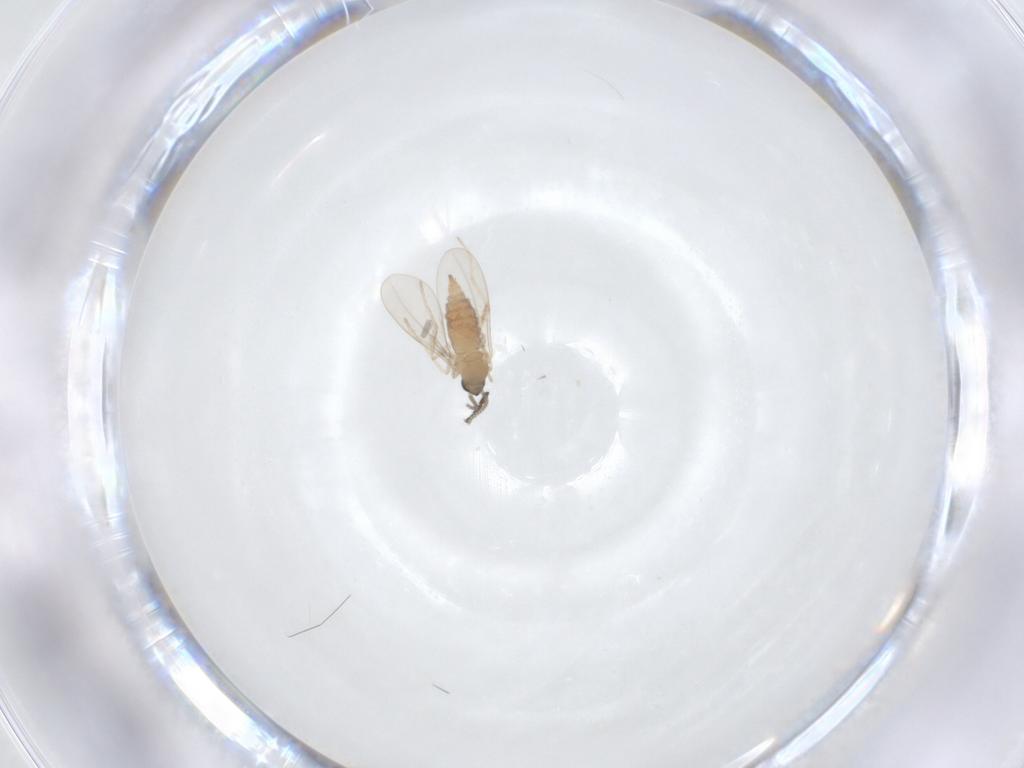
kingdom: Animalia
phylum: Arthropoda
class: Insecta
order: Diptera
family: Cecidomyiidae
